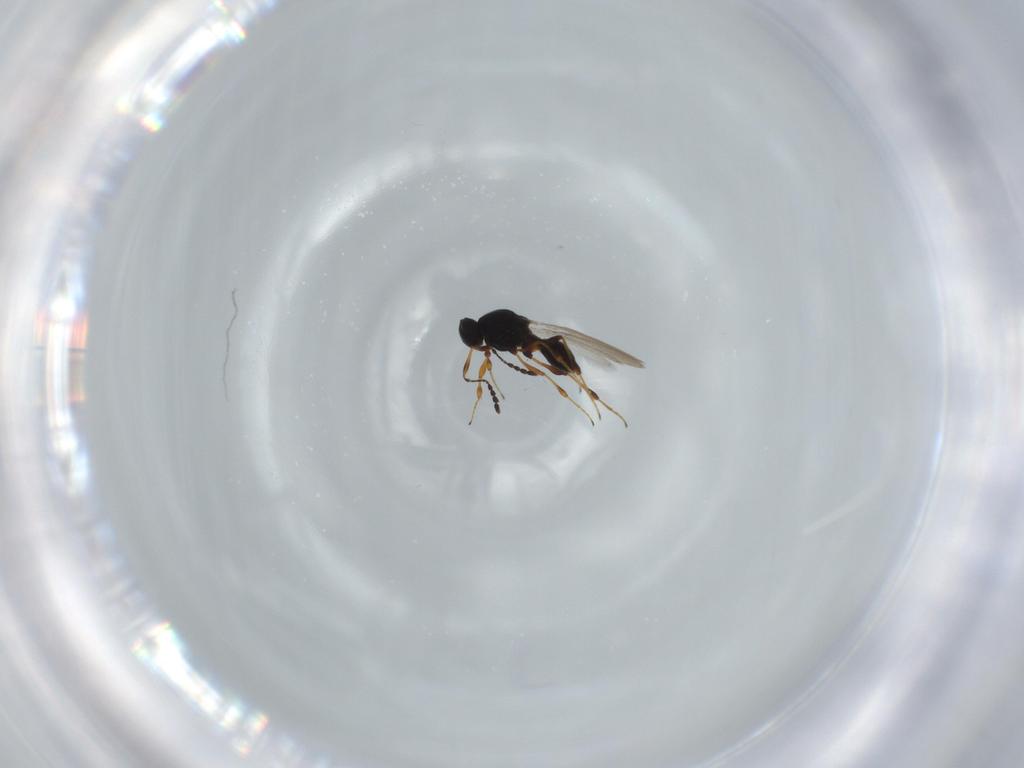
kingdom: Animalia
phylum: Arthropoda
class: Insecta
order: Hymenoptera
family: Platygastridae
